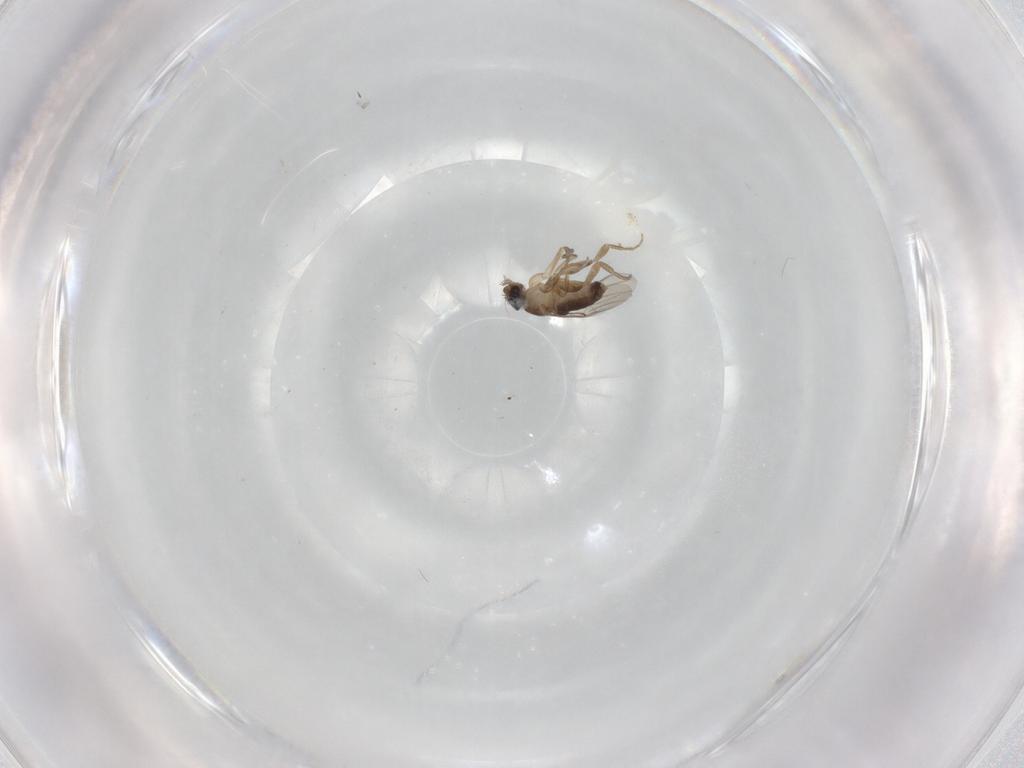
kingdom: Animalia
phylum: Arthropoda
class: Insecta
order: Diptera
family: Phoridae
